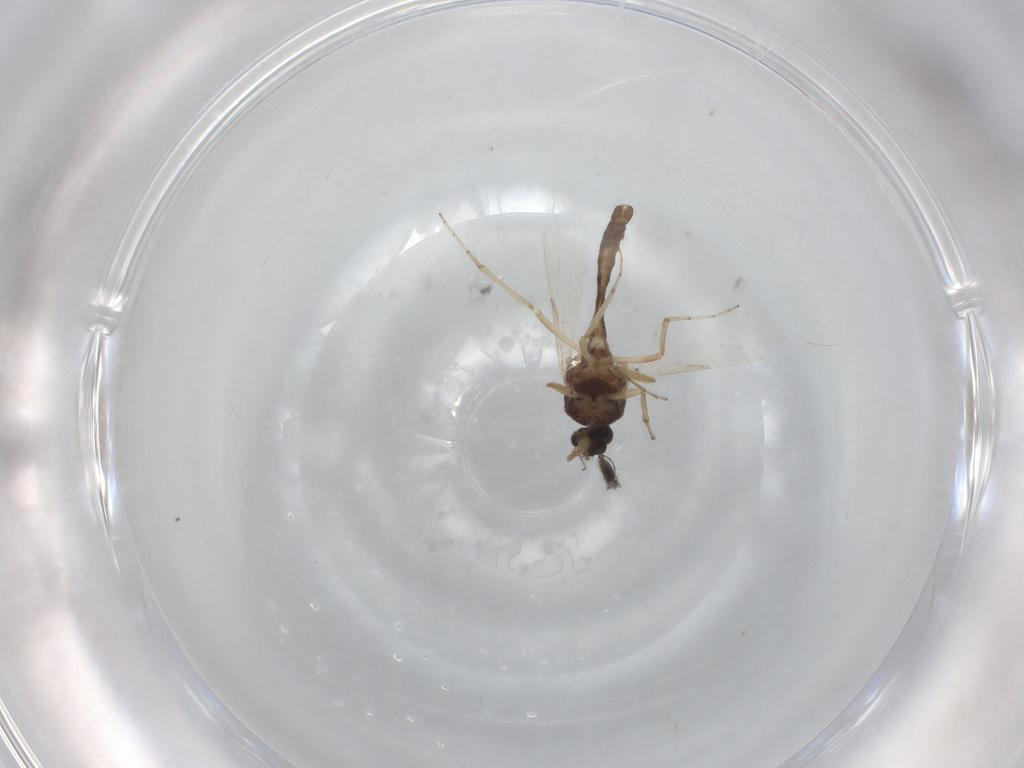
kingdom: Animalia
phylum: Arthropoda
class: Insecta
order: Diptera
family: Ceratopogonidae
